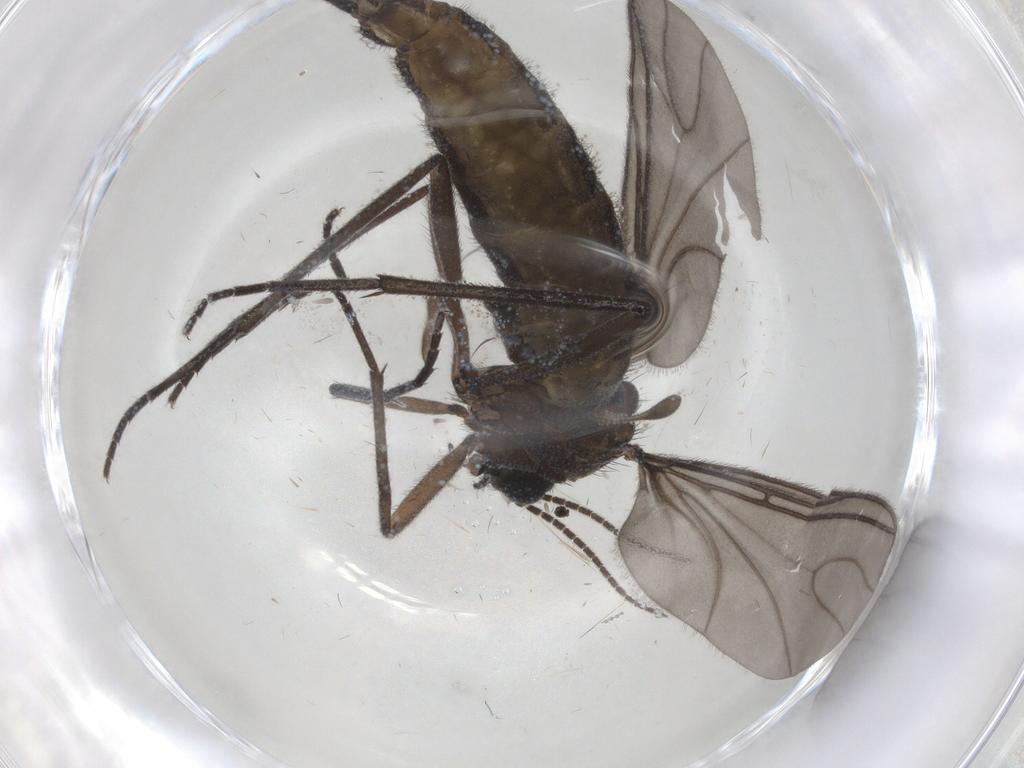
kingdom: Animalia
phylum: Arthropoda
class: Insecta
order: Diptera
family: Sciaridae
